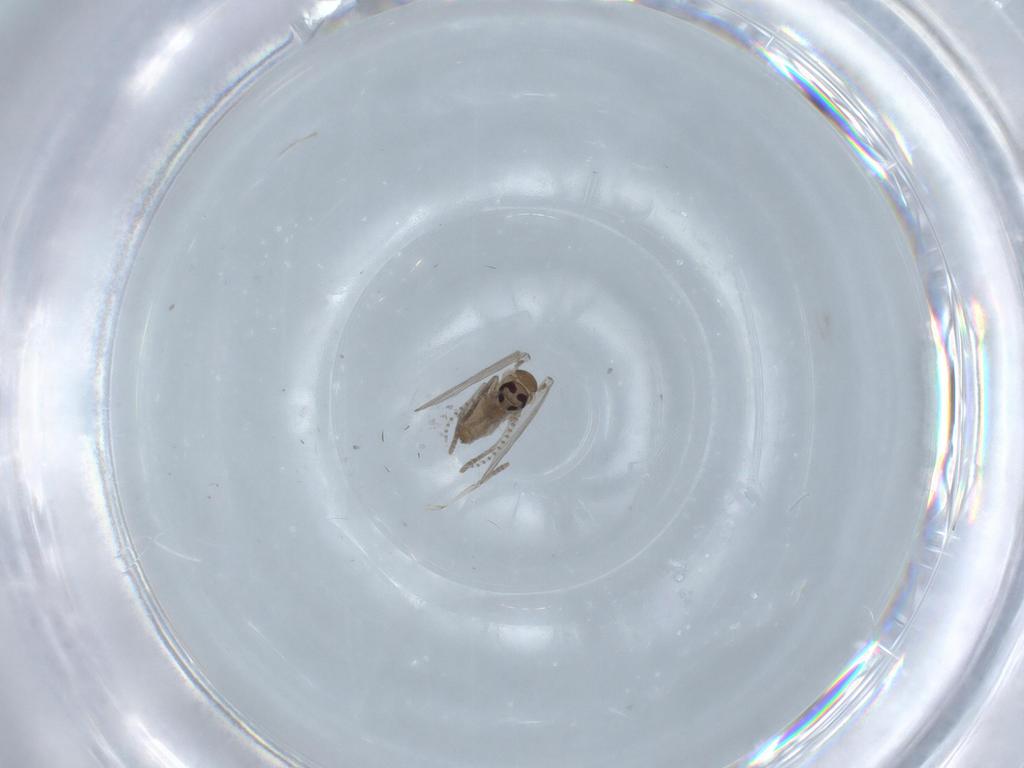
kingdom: Animalia
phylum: Arthropoda
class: Insecta
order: Diptera
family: Psychodidae
